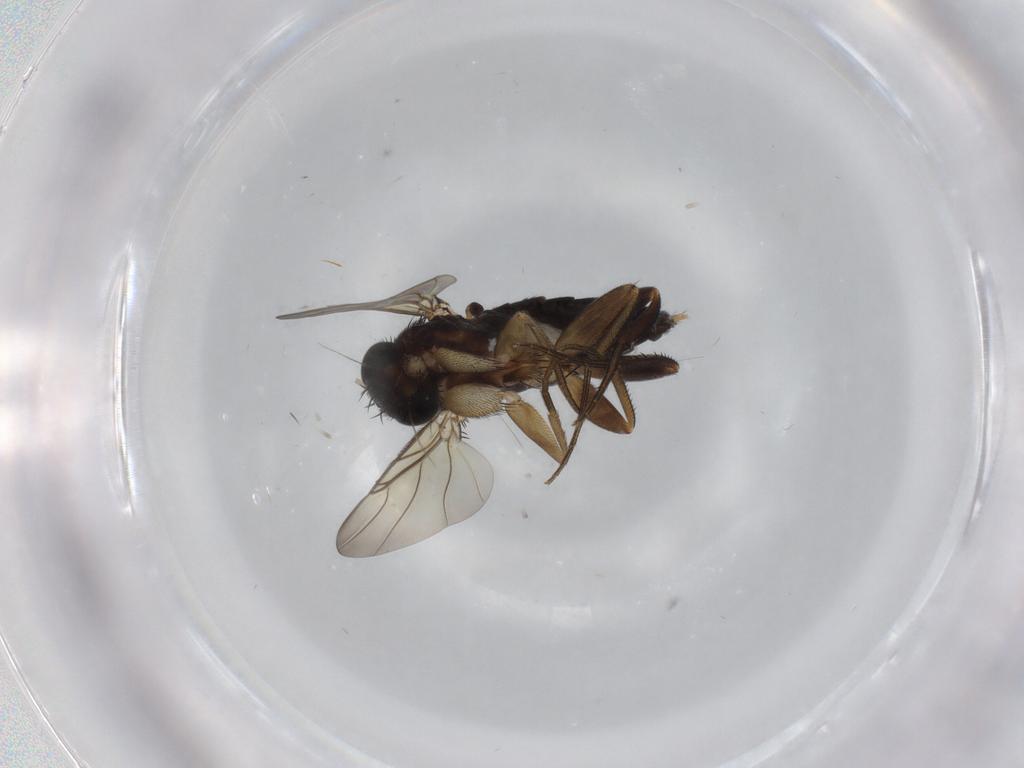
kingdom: Animalia
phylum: Arthropoda
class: Insecta
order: Diptera
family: Phoridae
